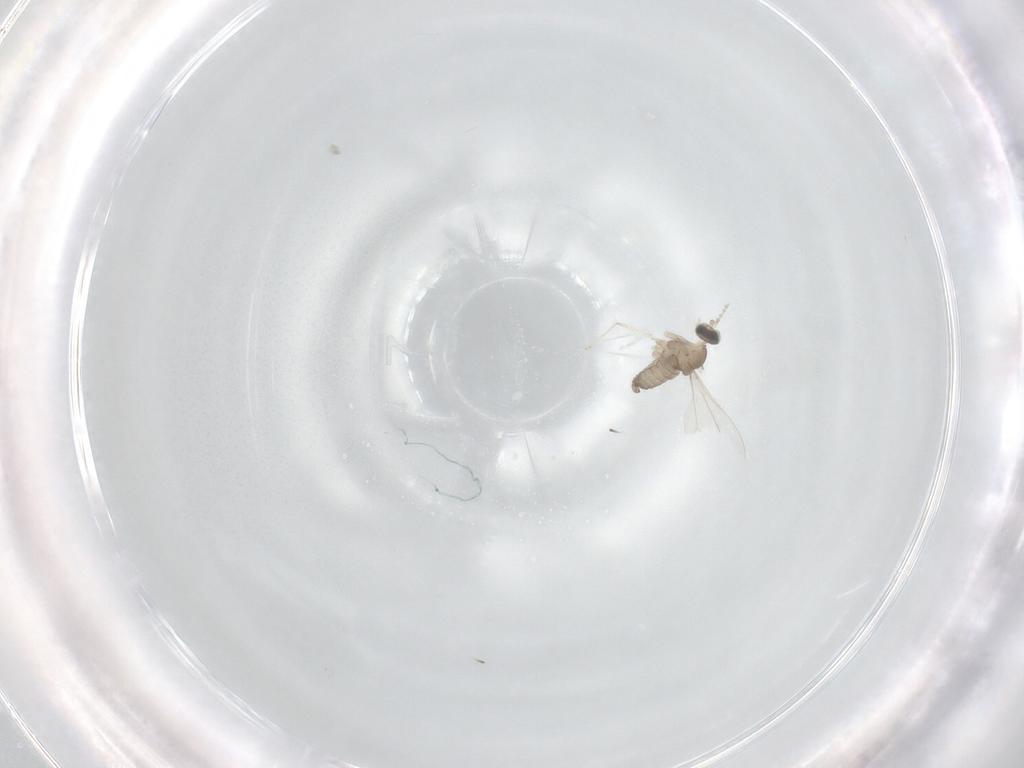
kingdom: Animalia
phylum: Arthropoda
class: Insecta
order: Diptera
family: Cecidomyiidae
